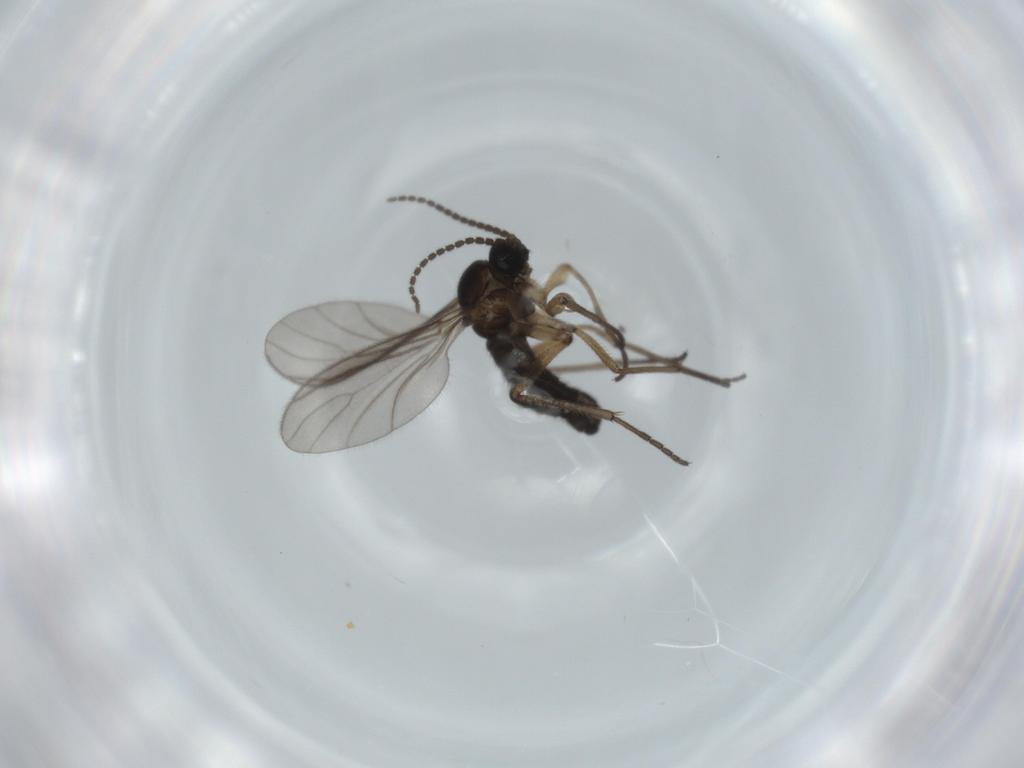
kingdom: Animalia
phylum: Arthropoda
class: Insecta
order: Diptera
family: Sciaridae
